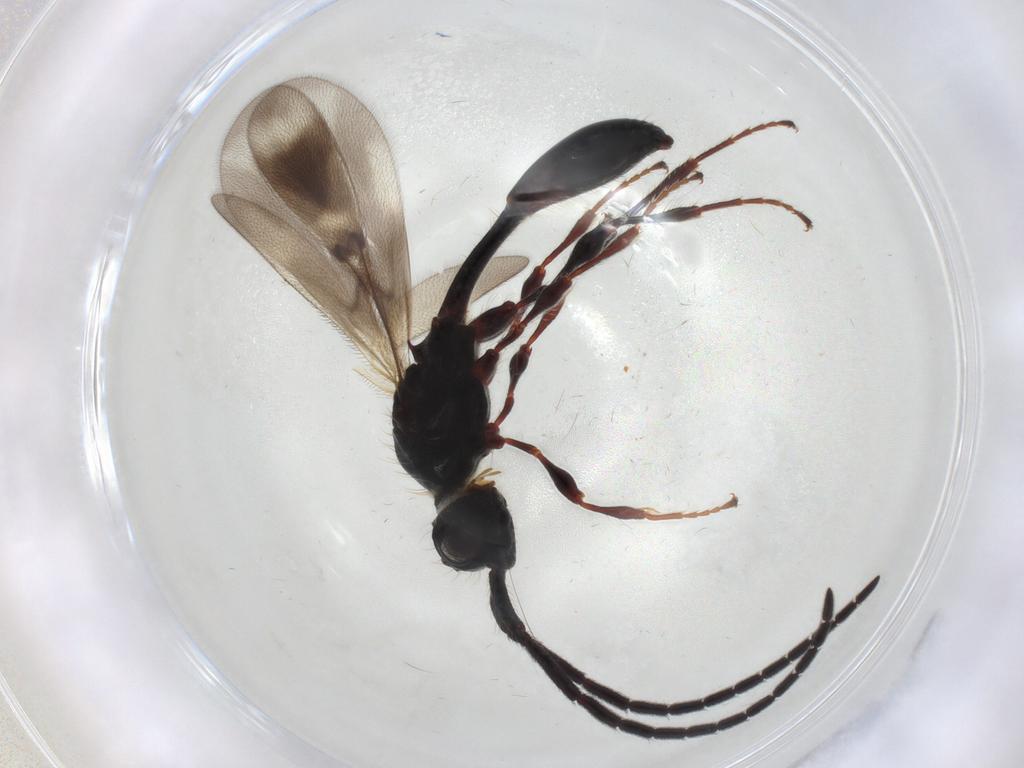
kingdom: Animalia
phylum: Arthropoda
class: Insecta
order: Hymenoptera
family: Diapriidae
